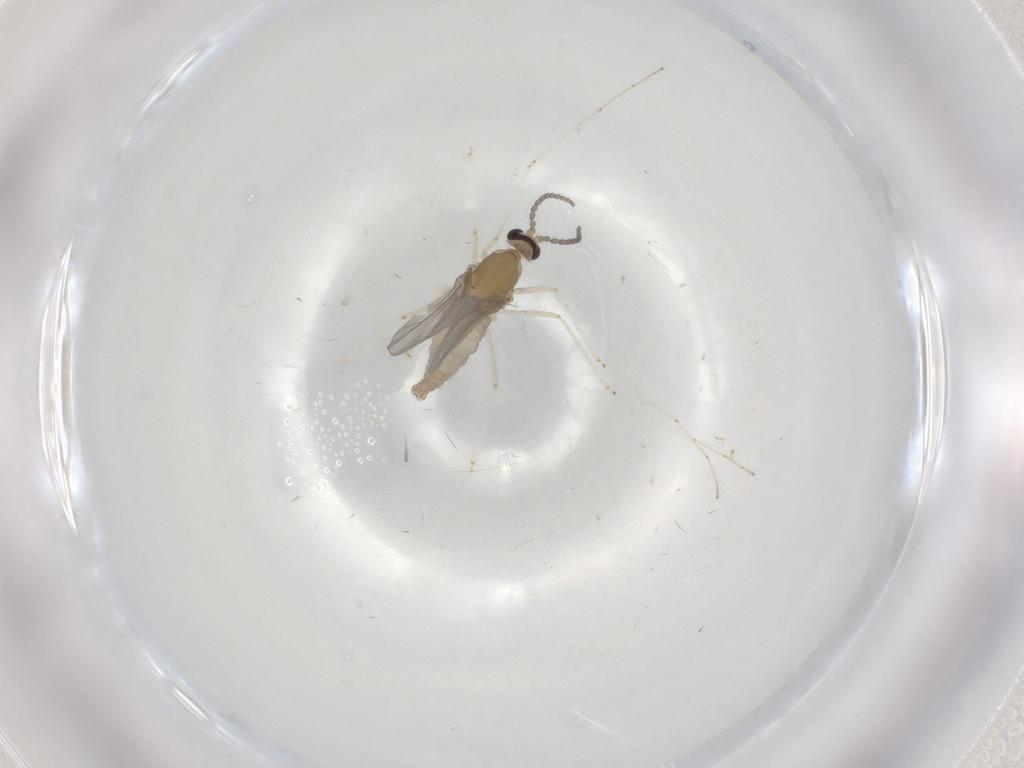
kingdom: Animalia
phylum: Arthropoda
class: Insecta
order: Diptera
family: Cecidomyiidae
